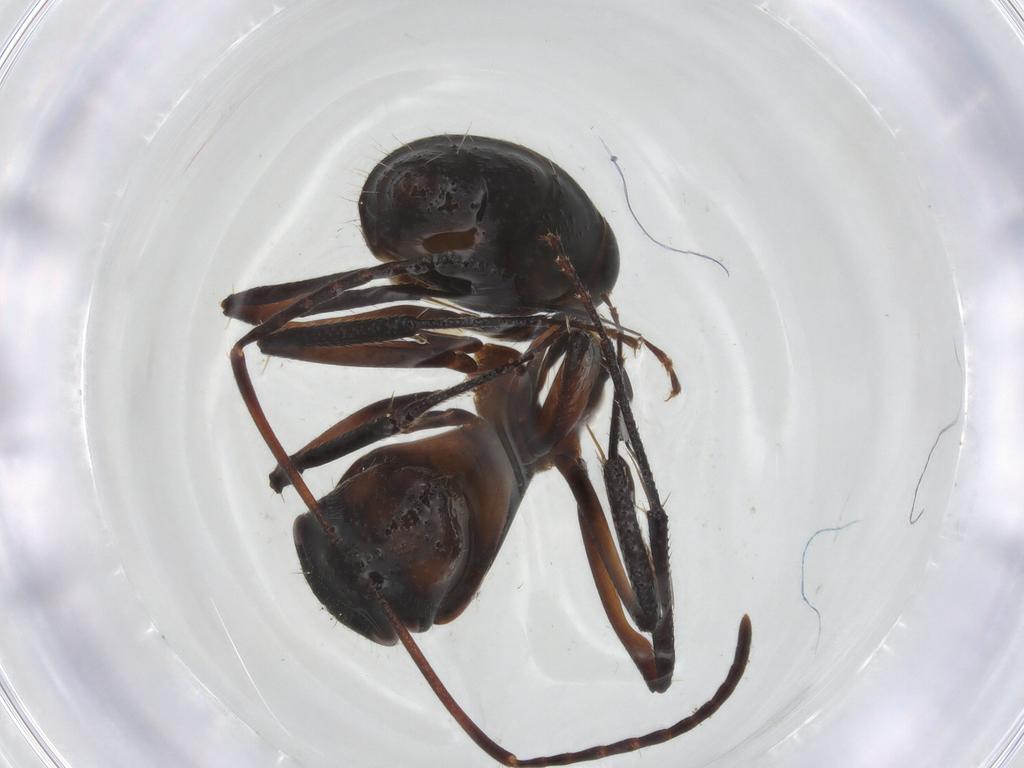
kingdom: Animalia
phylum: Arthropoda
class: Insecta
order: Hymenoptera
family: Formicidae
